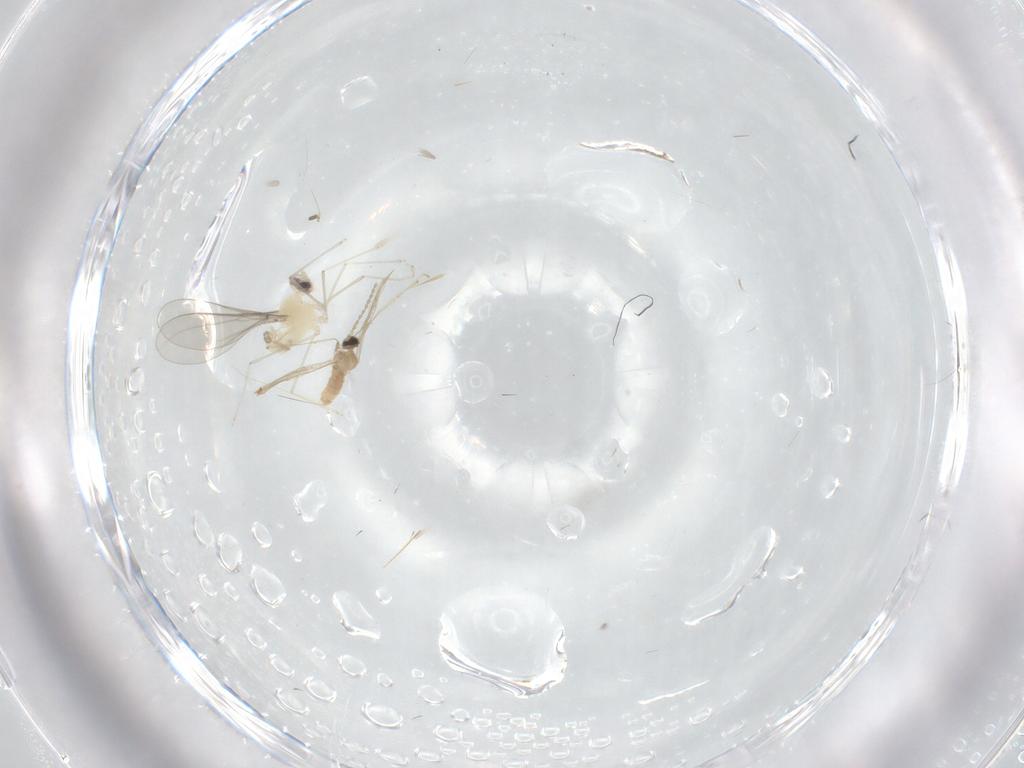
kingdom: Animalia
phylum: Arthropoda
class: Insecta
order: Diptera
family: Cecidomyiidae
